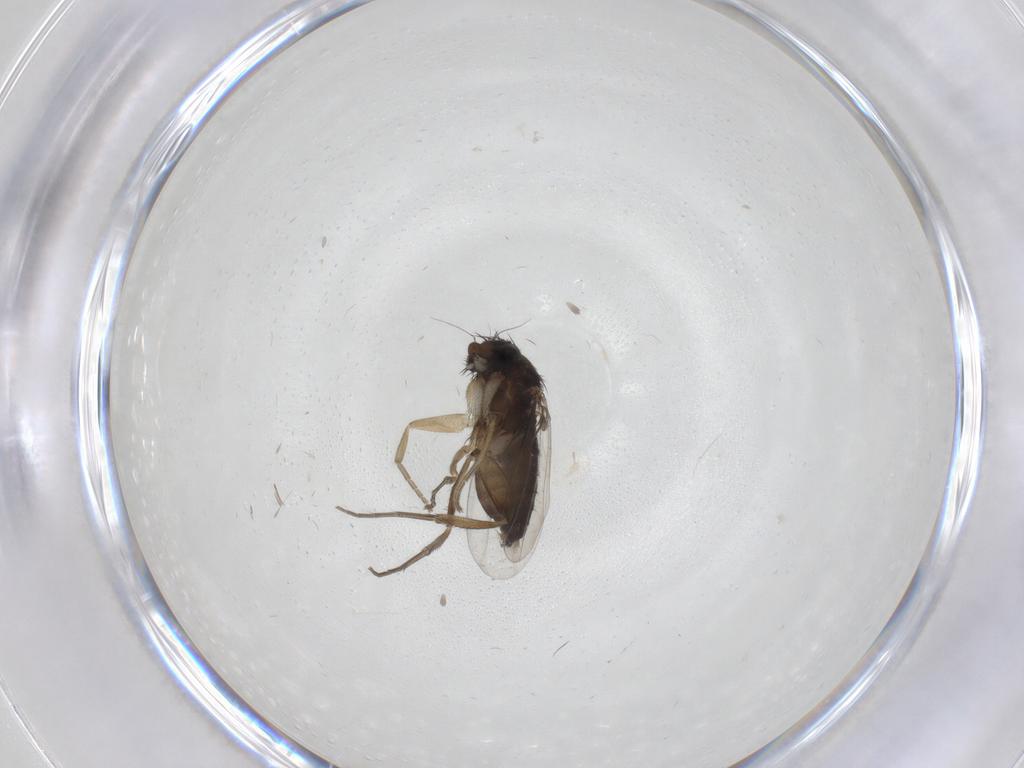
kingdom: Animalia
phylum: Arthropoda
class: Insecta
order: Diptera
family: Phoridae
